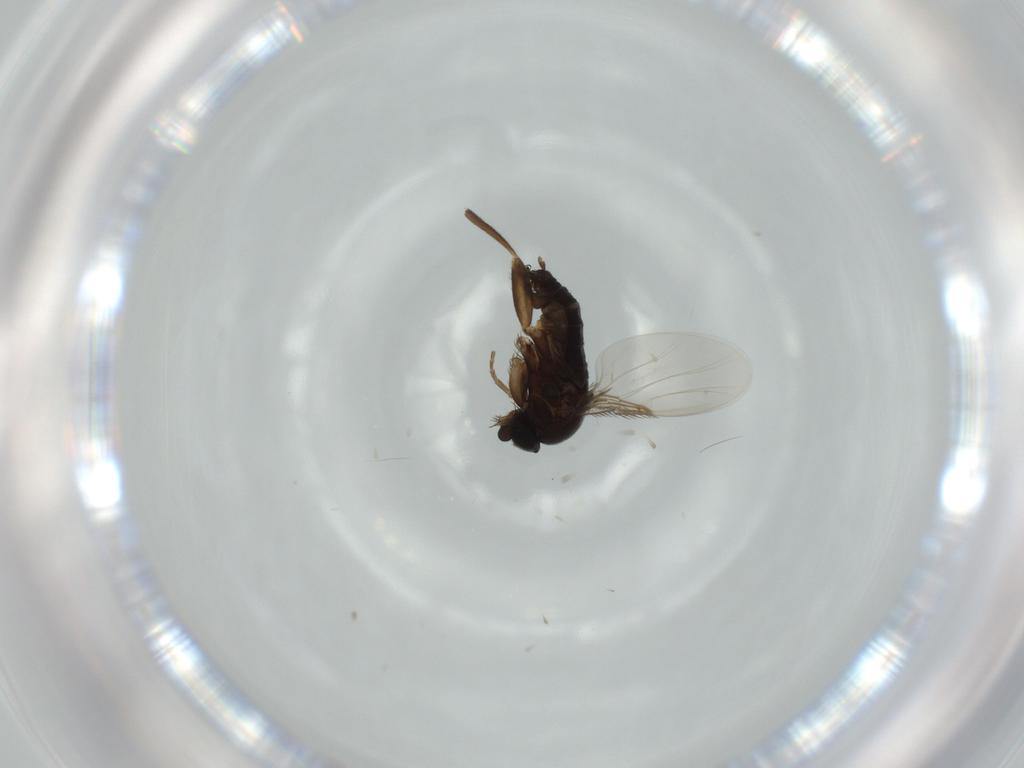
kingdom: Animalia
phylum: Arthropoda
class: Insecta
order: Diptera
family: Phoridae
